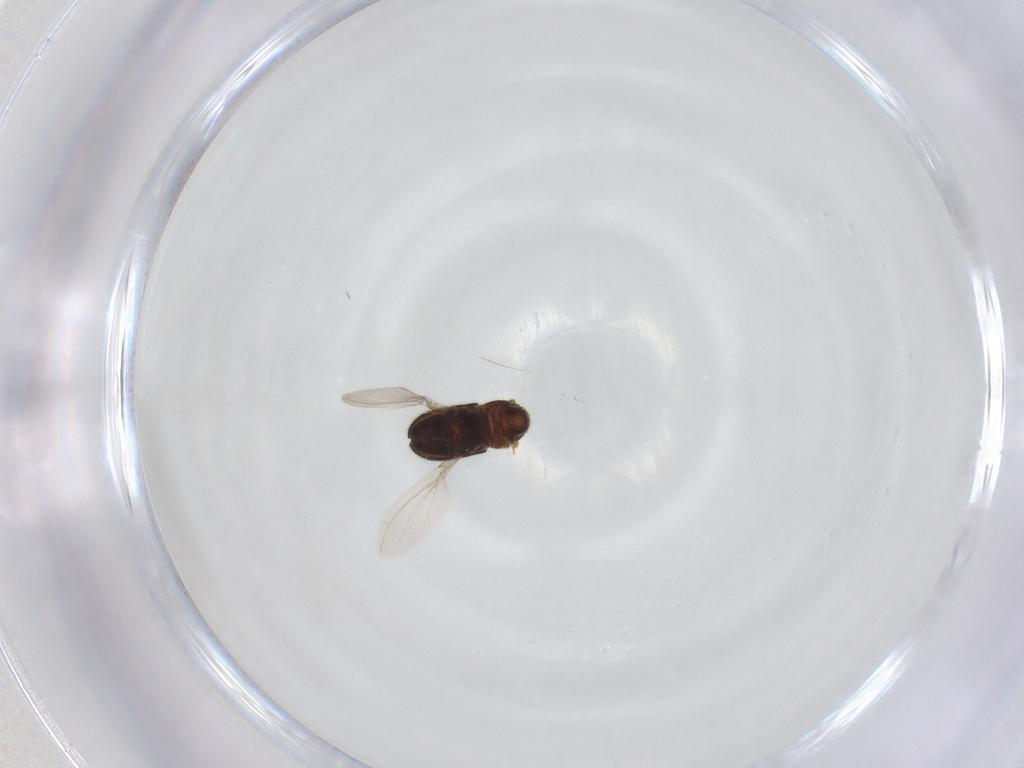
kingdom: Animalia
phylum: Arthropoda
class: Insecta
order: Coleoptera
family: Curculionidae
